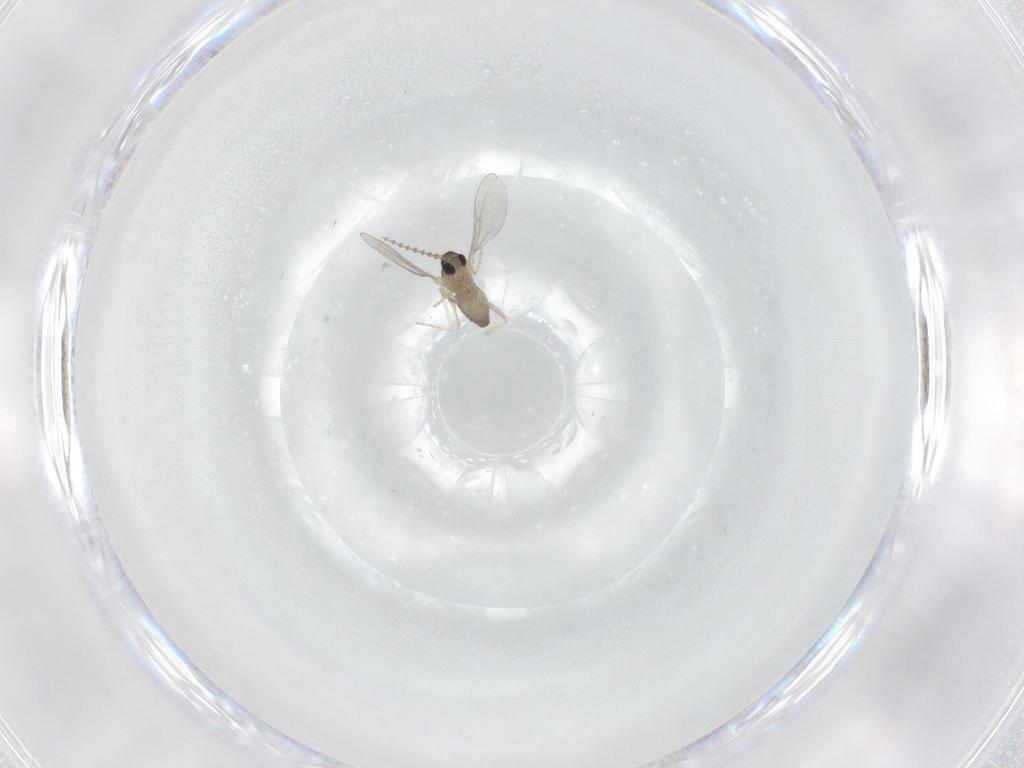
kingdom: Animalia
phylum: Arthropoda
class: Insecta
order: Diptera
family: Cecidomyiidae
